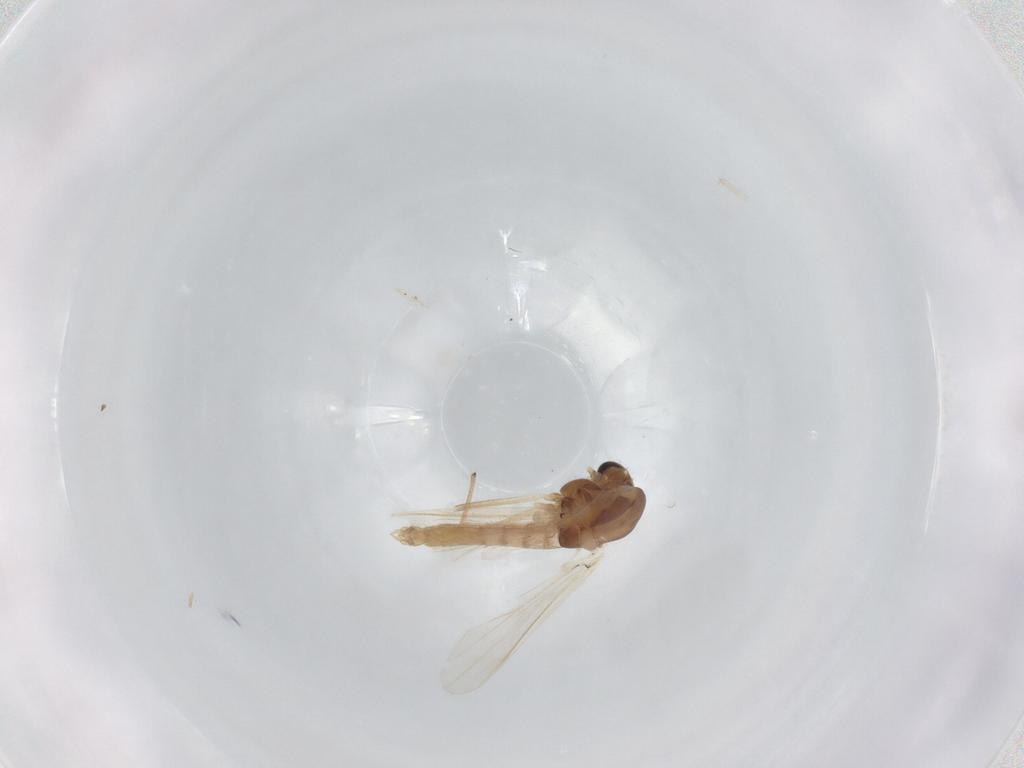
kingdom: Animalia
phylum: Arthropoda
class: Insecta
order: Diptera
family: Chironomidae
